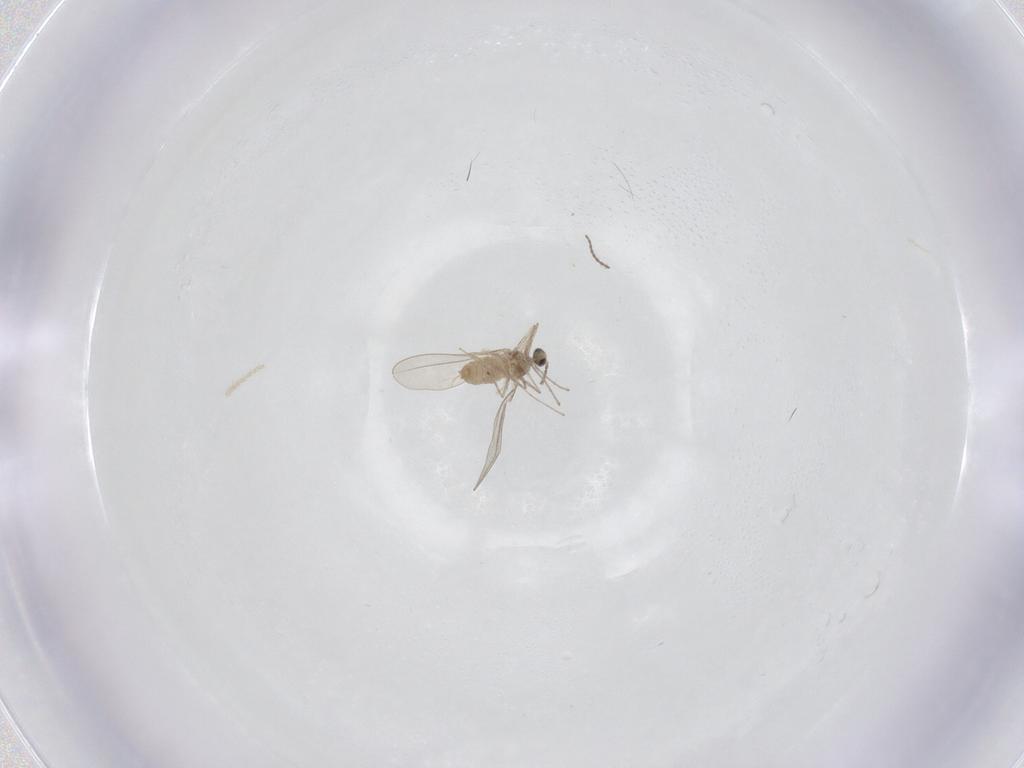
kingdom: Animalia
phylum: Arthropoda
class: Insecta
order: Diptera
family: Cecidomyiidae
